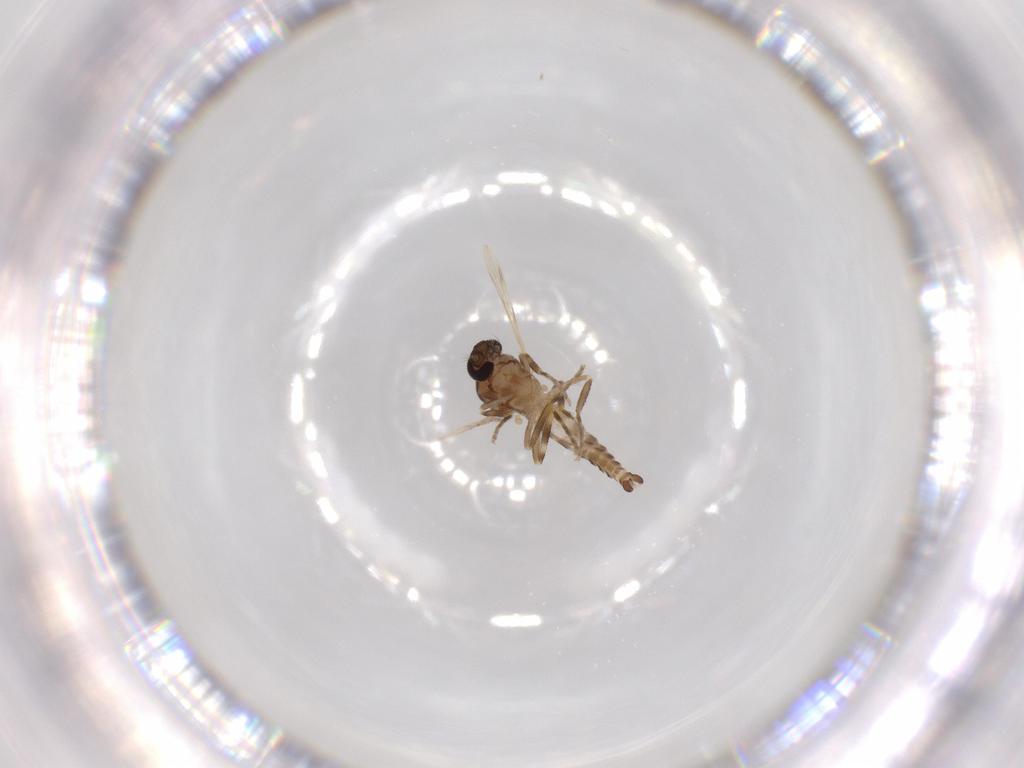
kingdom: Animalia
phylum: Arthropoda
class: Insecta
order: Diptera
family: Ceratopogonidae
